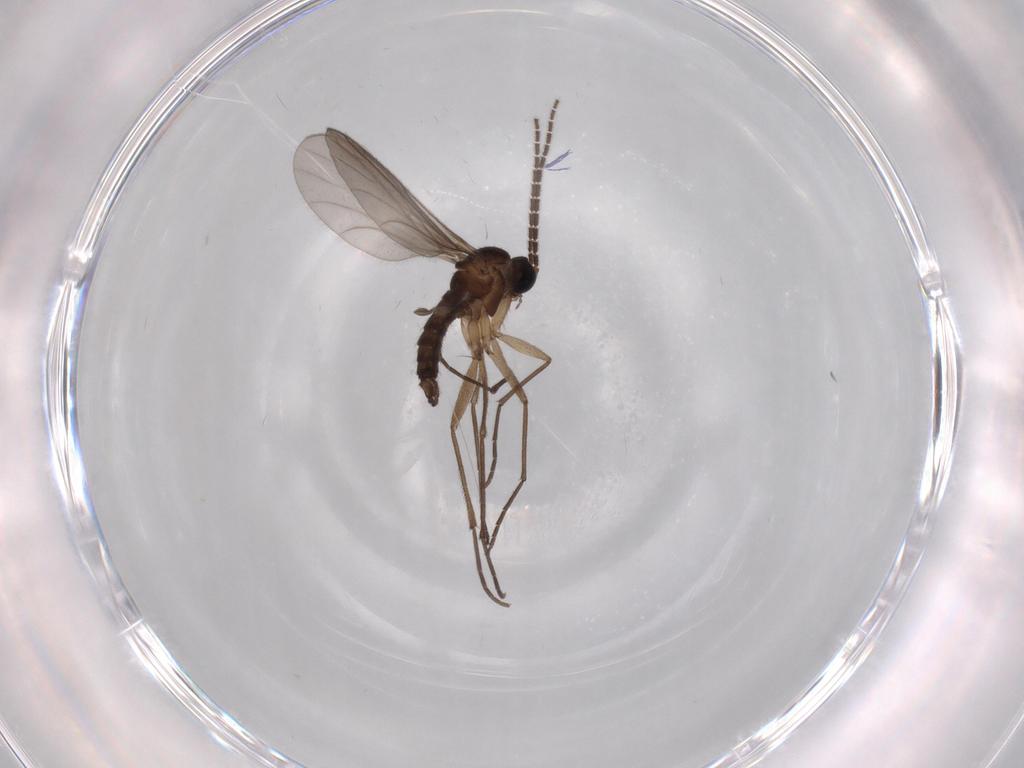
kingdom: Animalia
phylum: Arthropoda
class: Insecta
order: Diptera
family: Sciaridae
